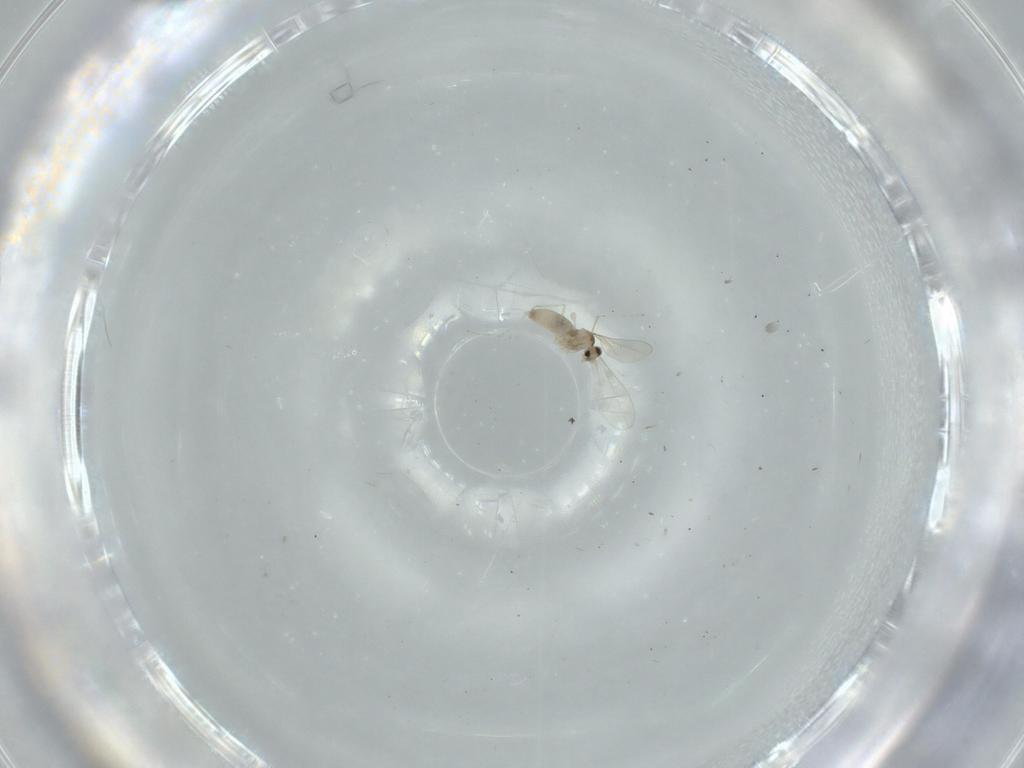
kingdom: Animalia
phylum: Arthropoda
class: Insecta
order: Diptera
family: Cecidomyiidae
